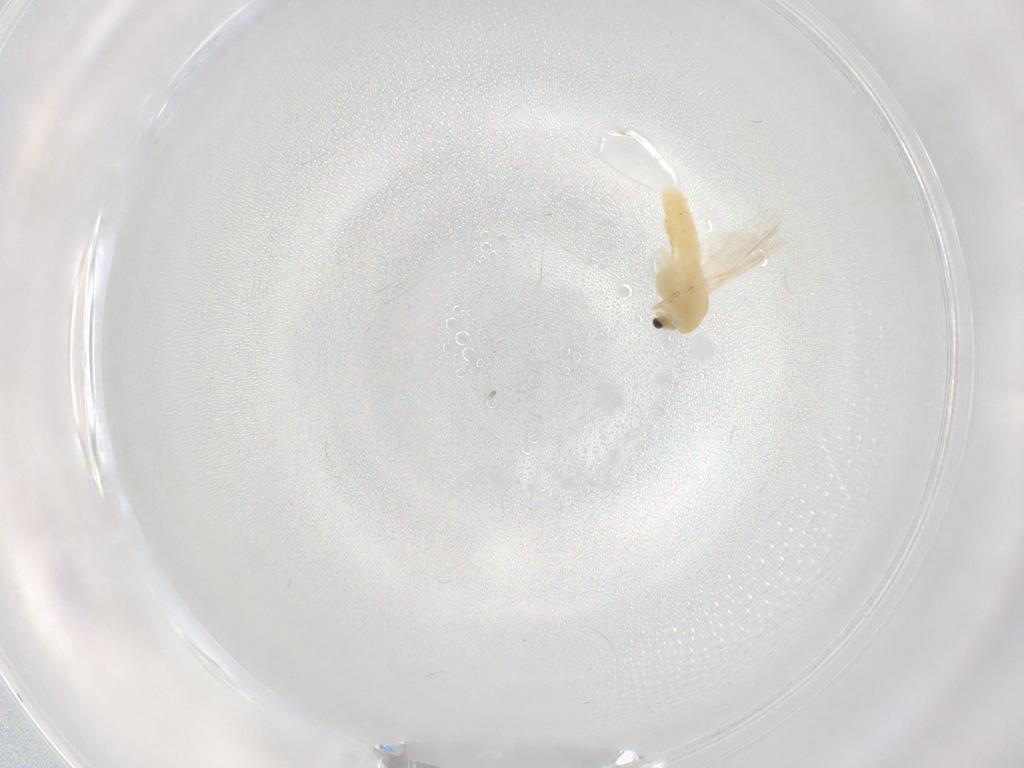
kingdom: Animalia
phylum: Arthropoda
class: Insecta
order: Diptera
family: Chironomidae
